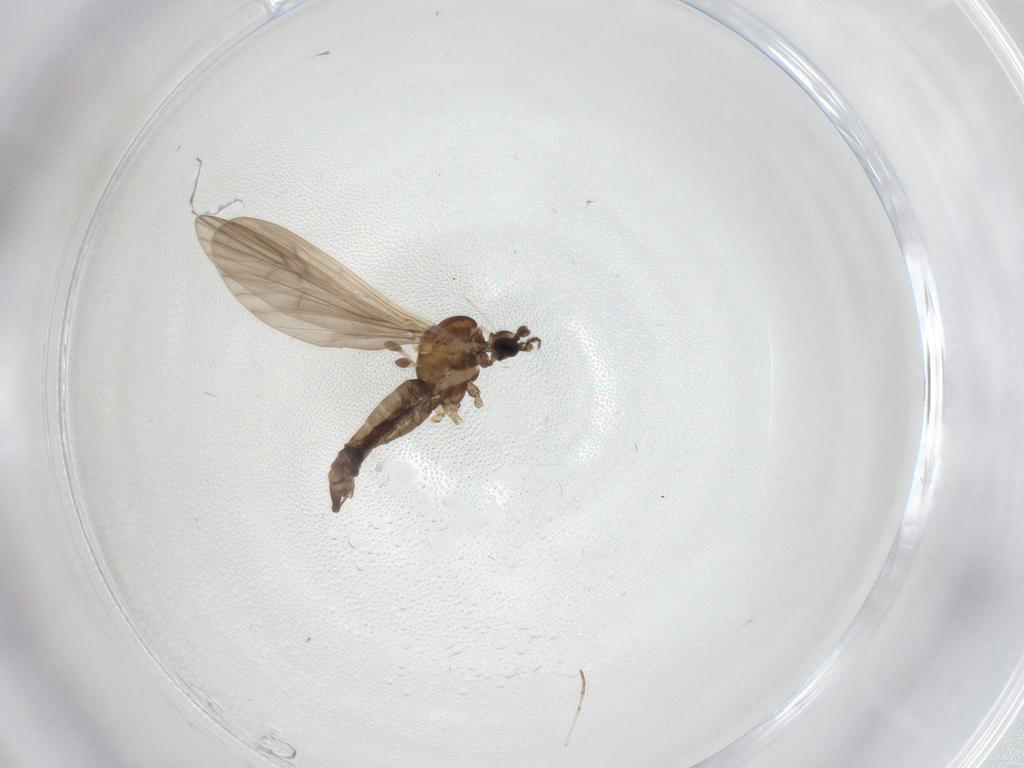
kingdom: Animalia
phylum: Arthropoda
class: Insecta
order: Diptera
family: Limoniidae
